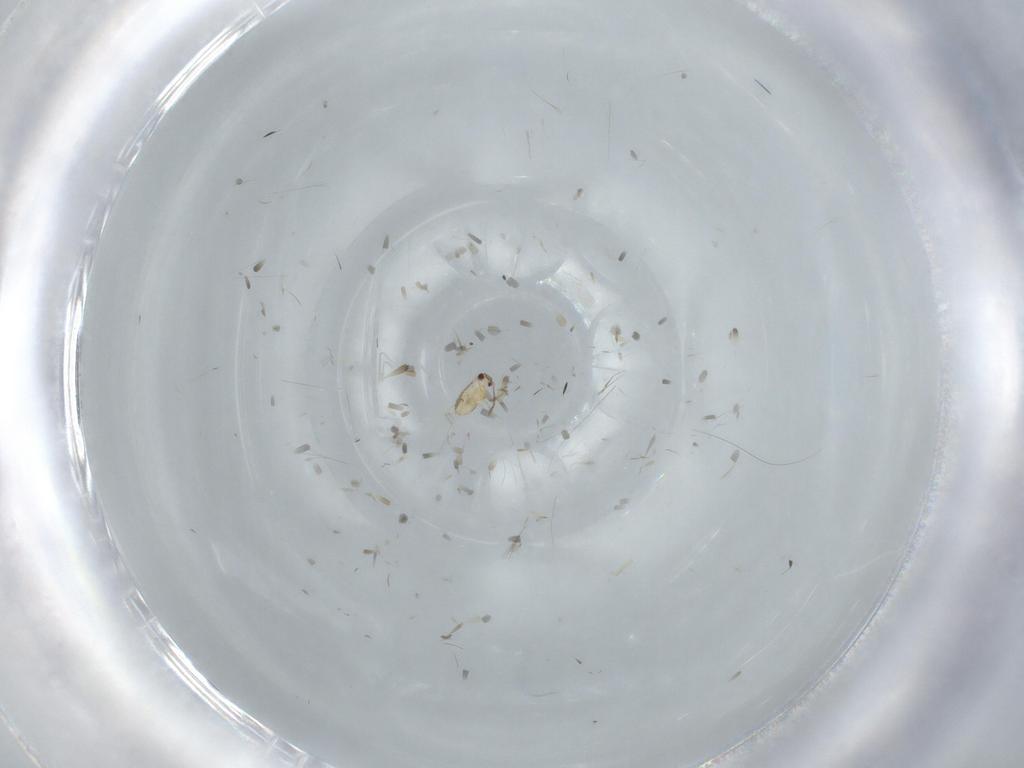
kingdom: Animalia
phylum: Arthropoda
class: Insecta
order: Blattodea
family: Blaberidae
